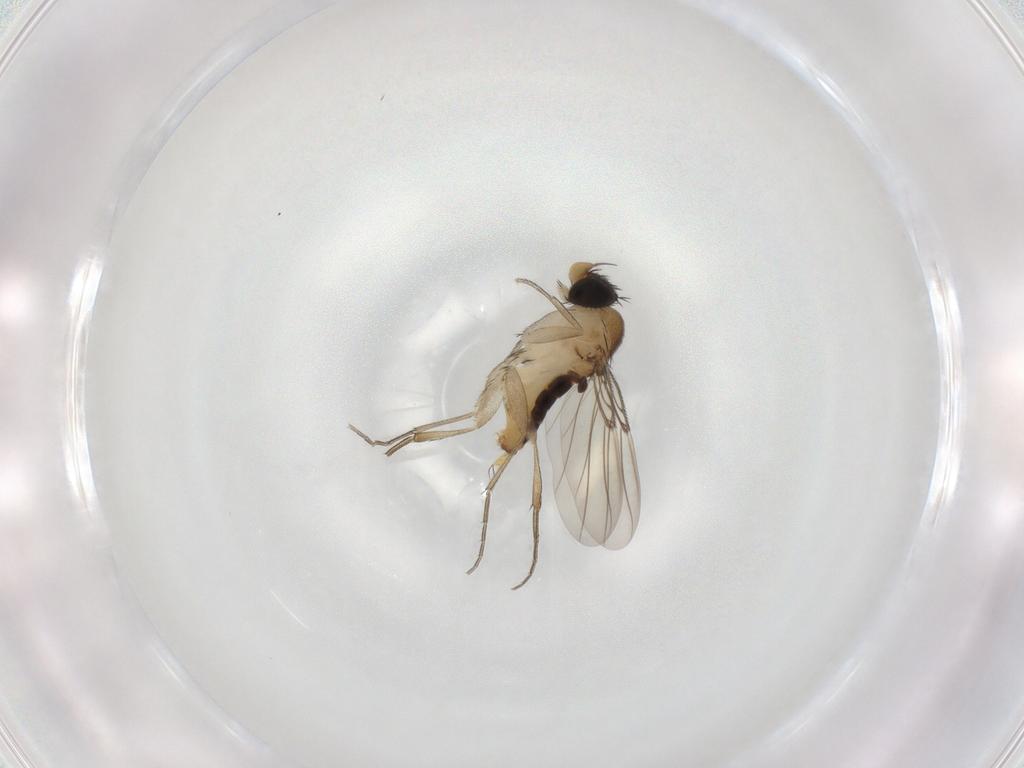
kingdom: Animalia
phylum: Arthropoda
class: Insecta
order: Diptera
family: Phoridae
